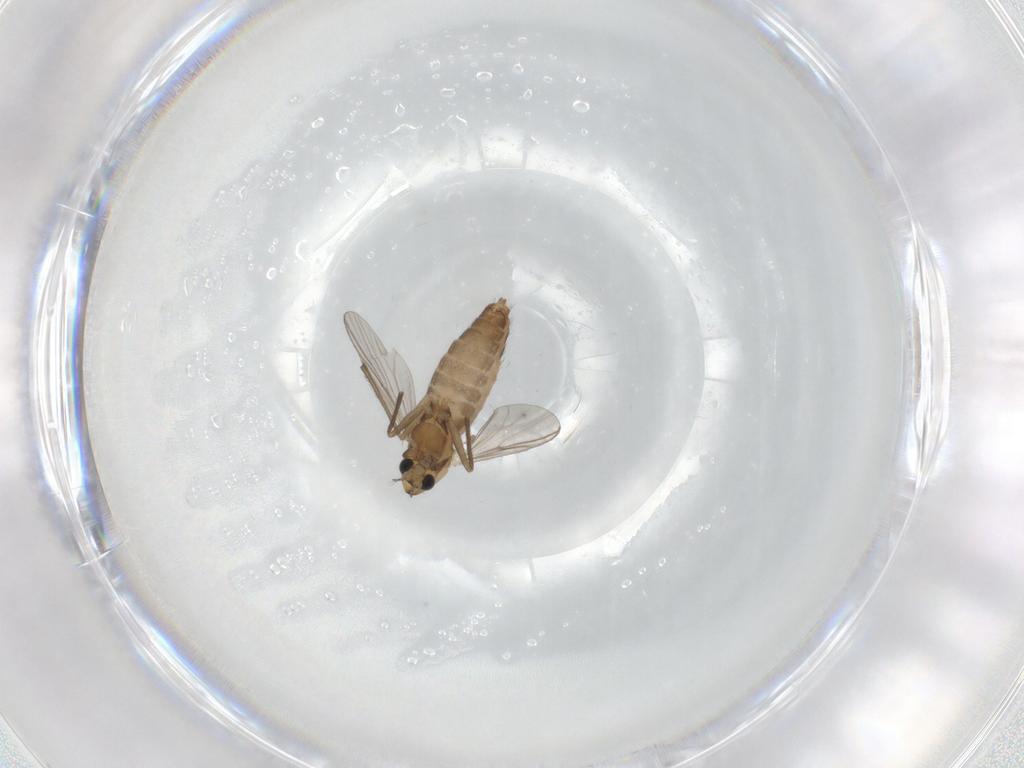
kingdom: Animalia
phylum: Arthropoda
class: Insecta
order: Diptera
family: Chironomidae
